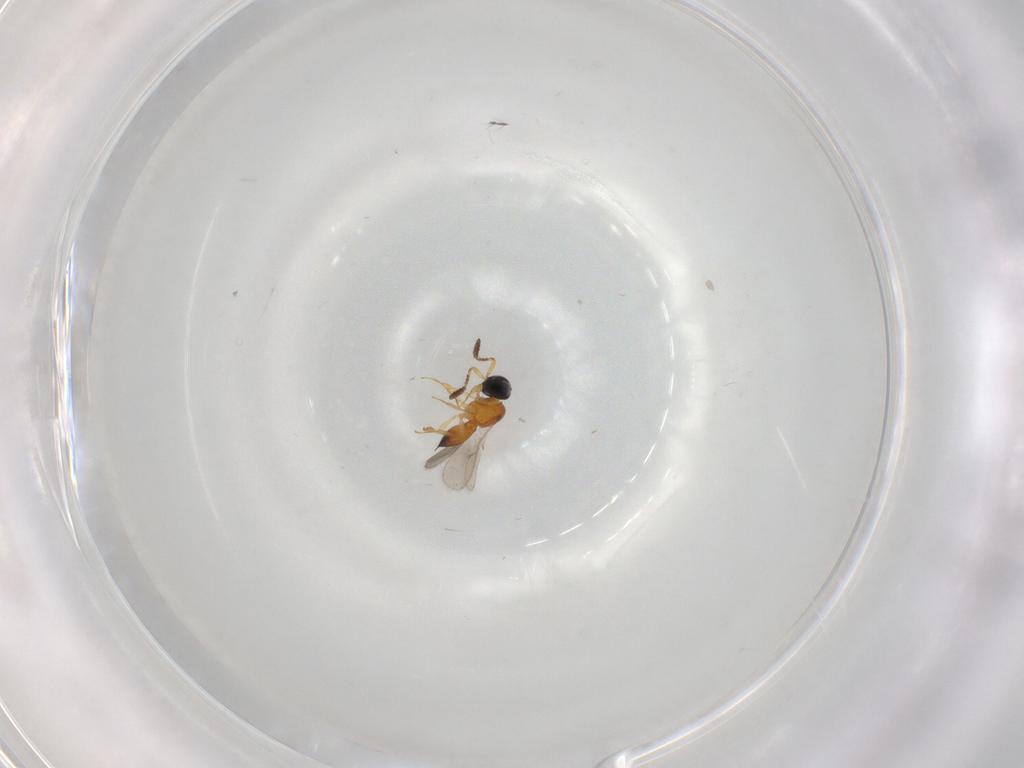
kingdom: Animalia
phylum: Arthropoda
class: Insecta
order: Hymenoptera
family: Scelionidae
